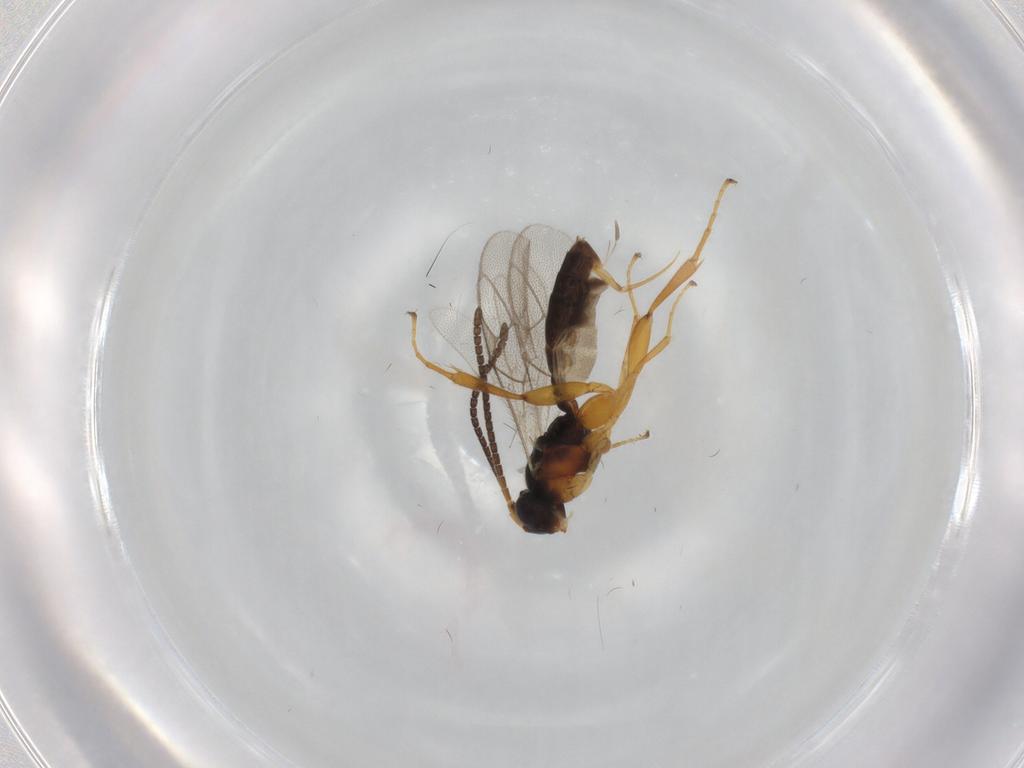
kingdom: Animalia
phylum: Arthropoda
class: Insecta
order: Hymenoptera
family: Ichneumonidae
